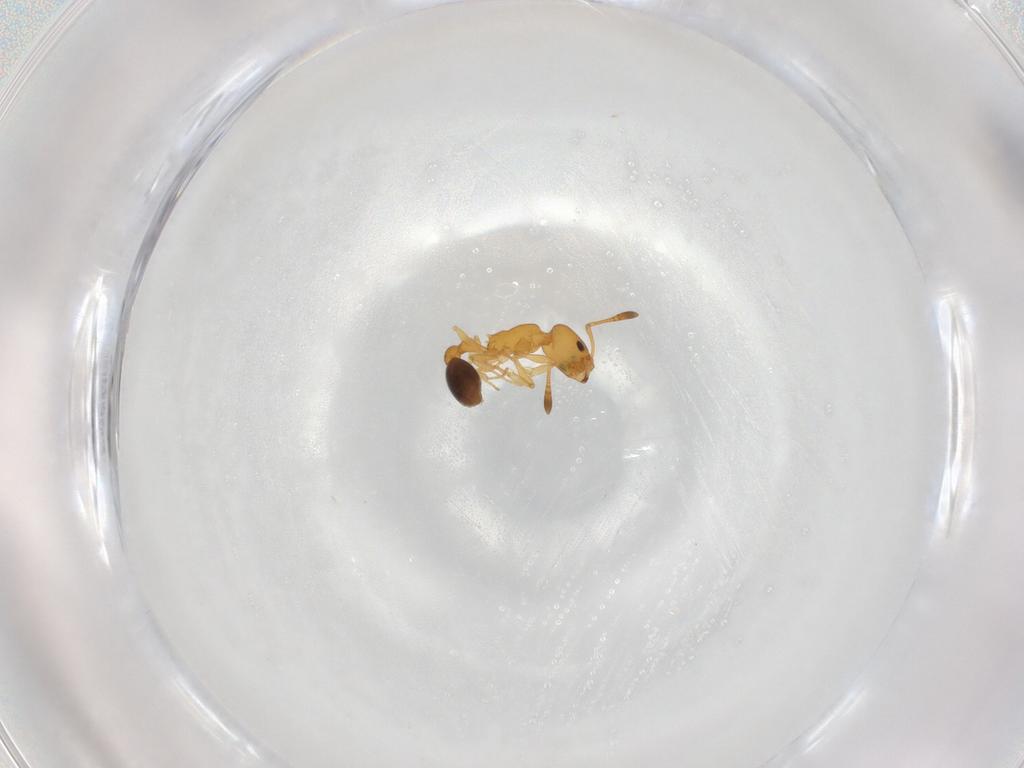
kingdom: Animalia
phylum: Arthropoda
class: Insecta
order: Hymenoptera
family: Formicidae
